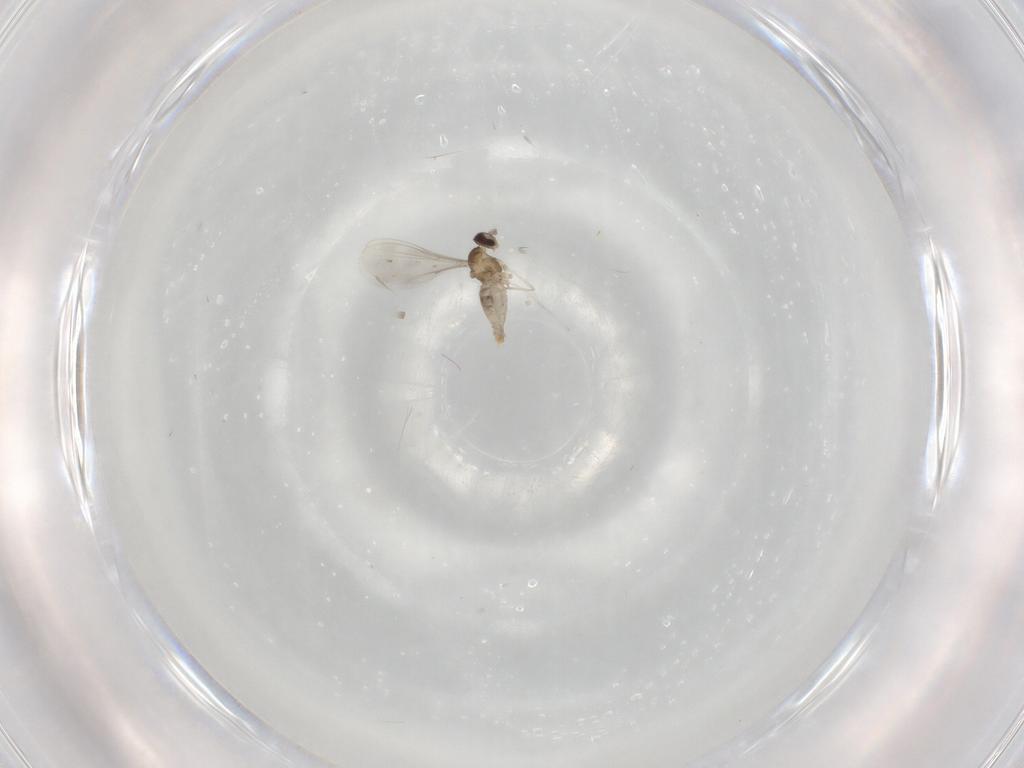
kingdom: Animalia
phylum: Arthropoda
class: Insecta
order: Diptera
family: Cecidomyiidae
